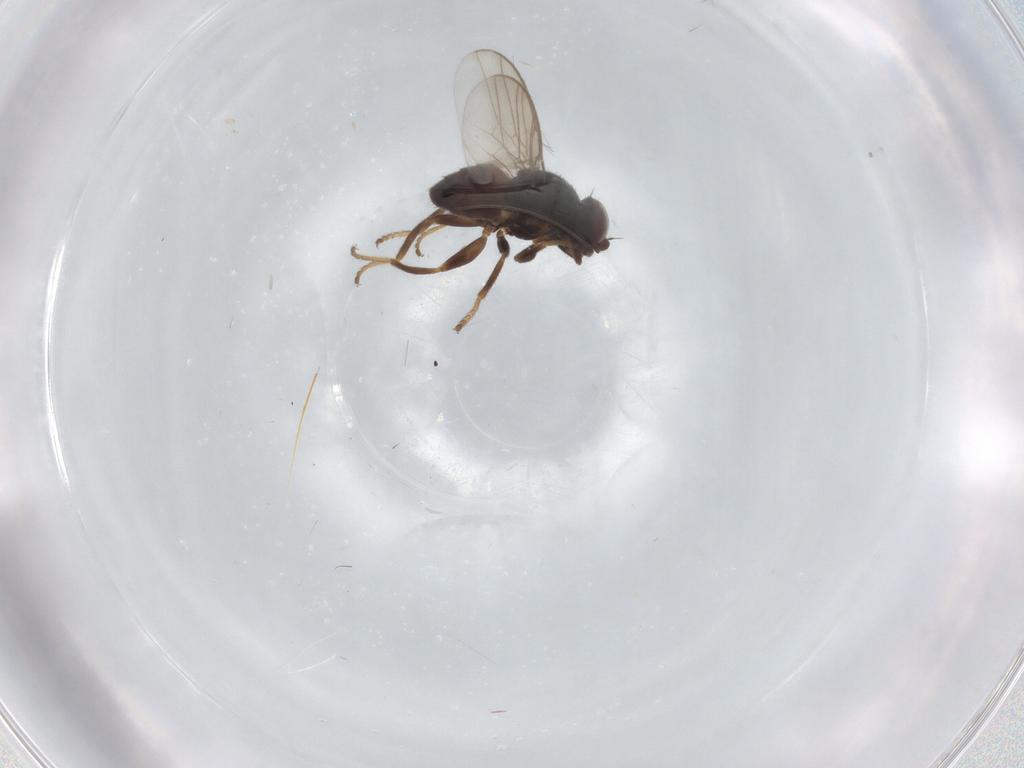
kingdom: Animalia
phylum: Arthropoda
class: Insecta
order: Diptera
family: Chloropidae
